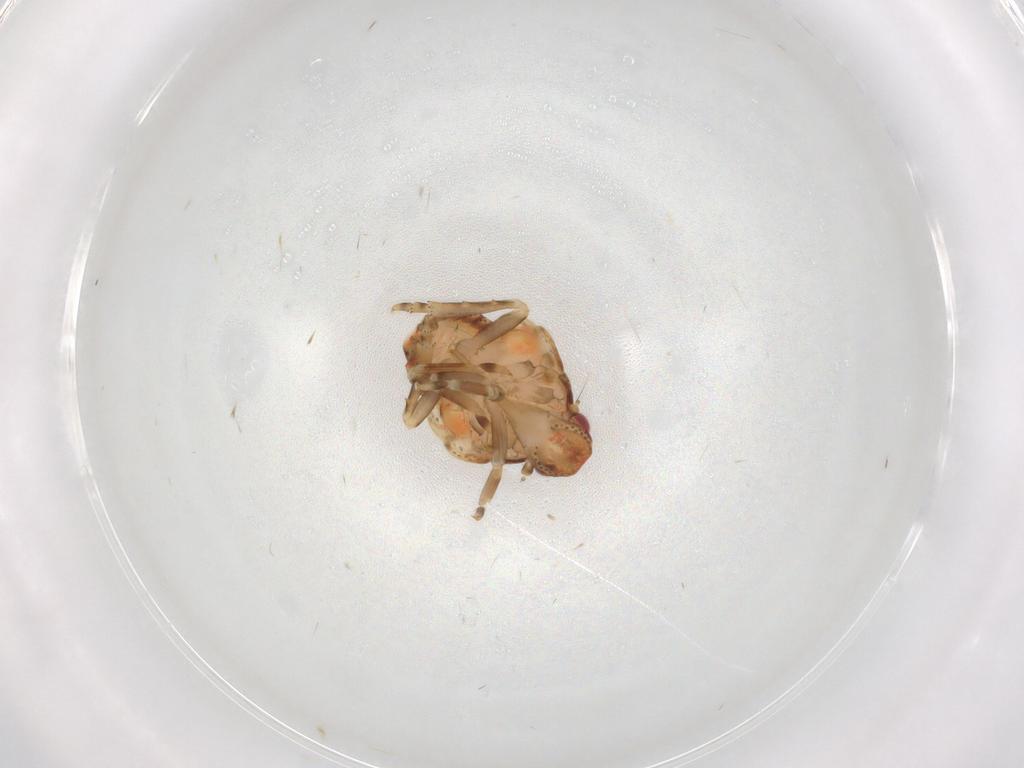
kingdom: Animalia
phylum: Arthropoda
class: Insecta
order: Hemiptera
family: Flatidae
